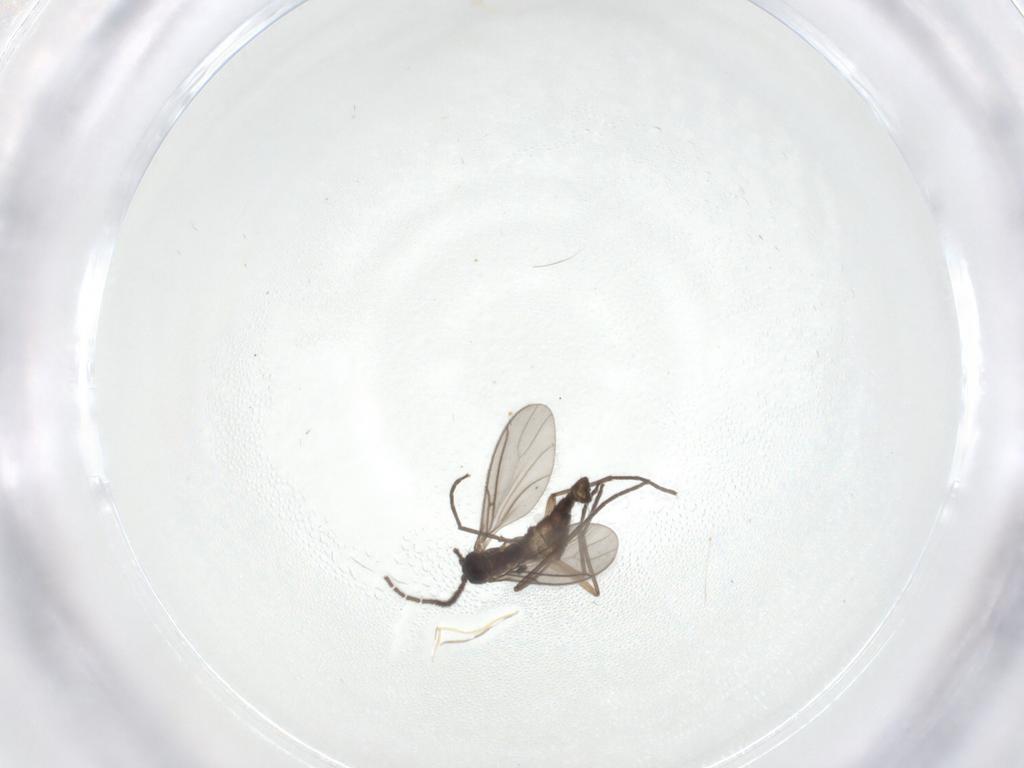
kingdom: Animalia
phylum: Arthropoda
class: Insecta
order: Diptera
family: Sciaridae
